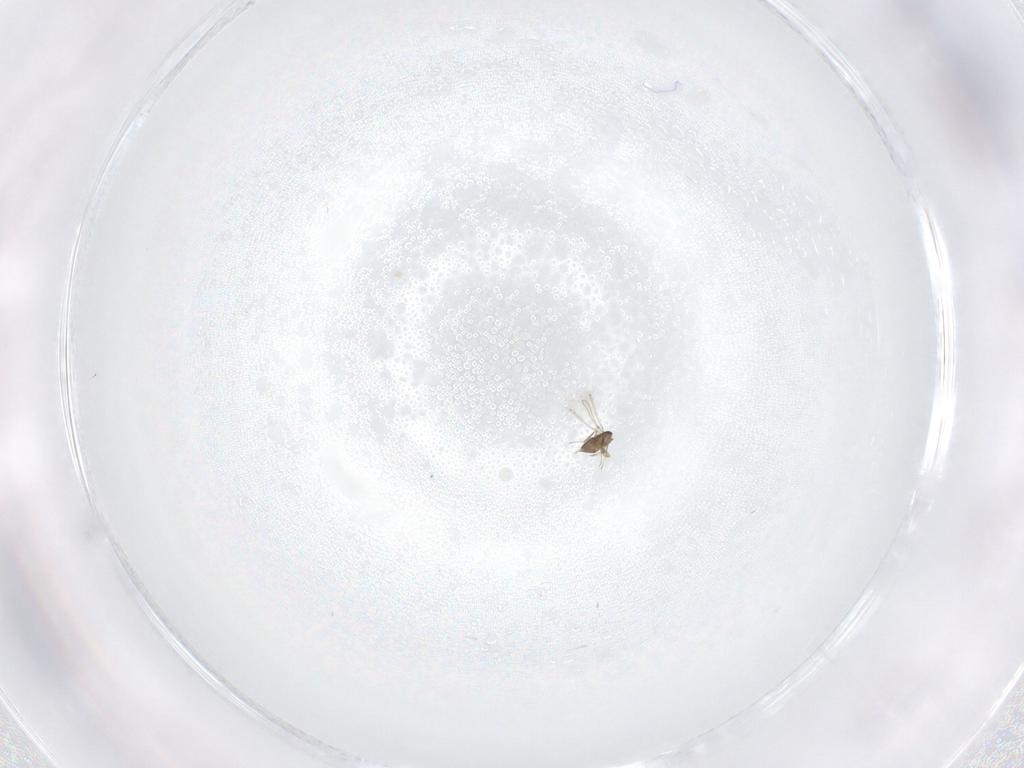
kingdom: Animalia
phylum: Arthropoda
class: Insecta
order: Hymenoptera
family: Mymaridae
